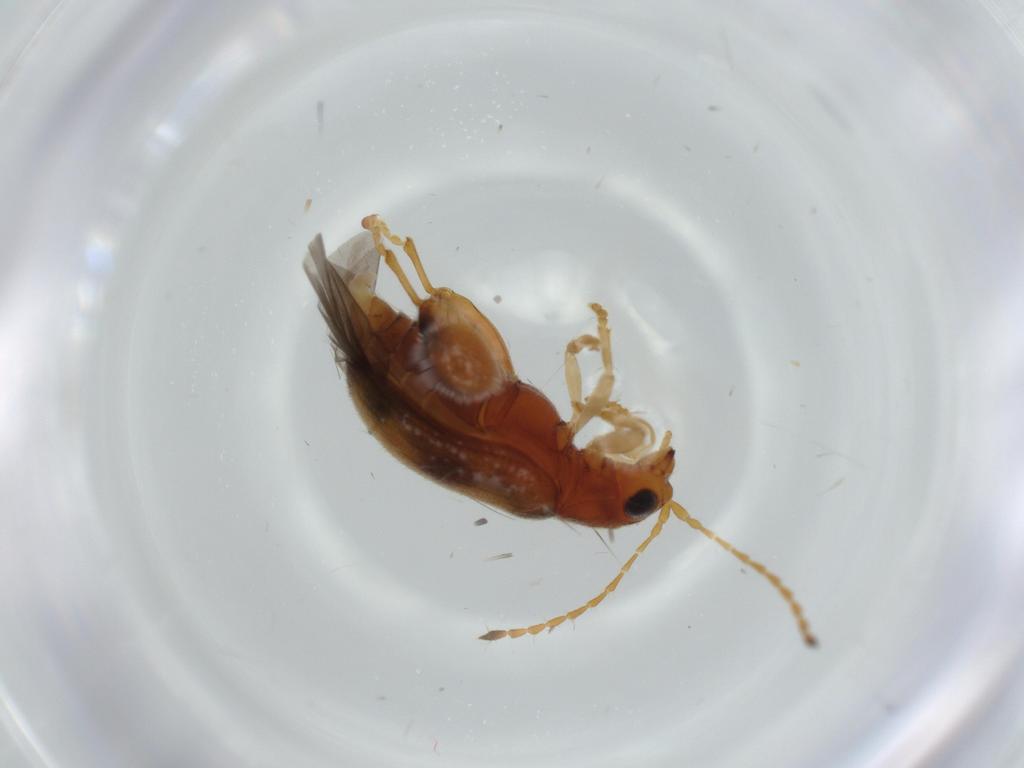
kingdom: Animalia
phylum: Arthropoda
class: Insecta
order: Coleoptera
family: Chrysomelidae
